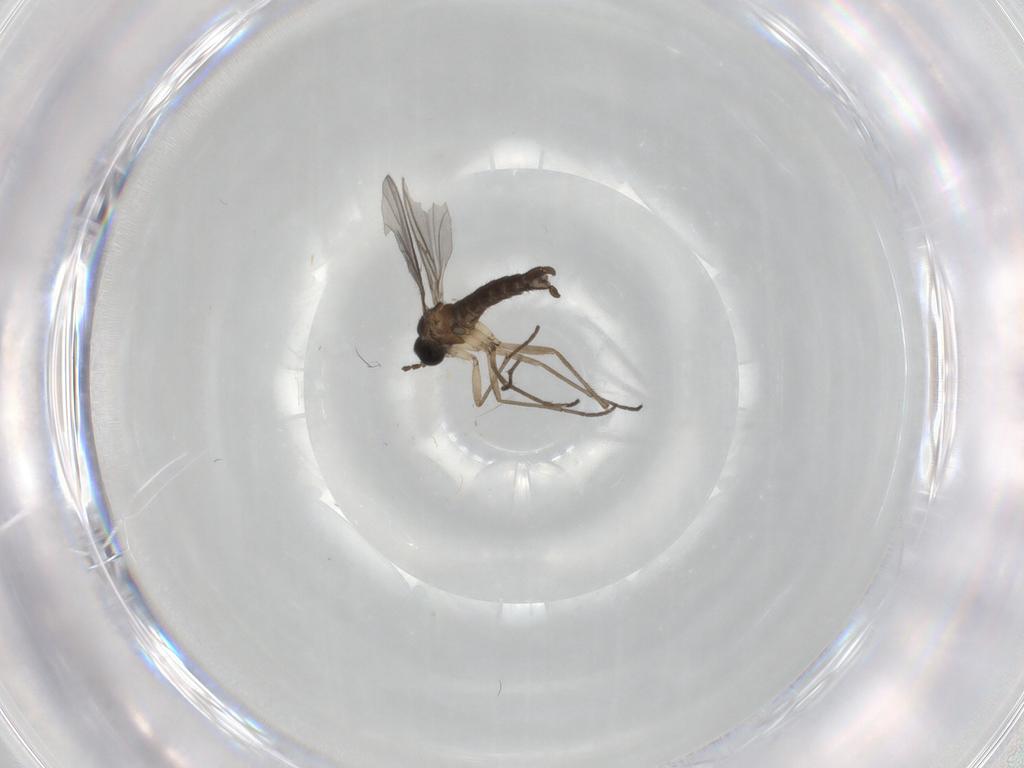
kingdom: Animalia
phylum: Arthropoda
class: Insecta
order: Diptera
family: Sciaridae
